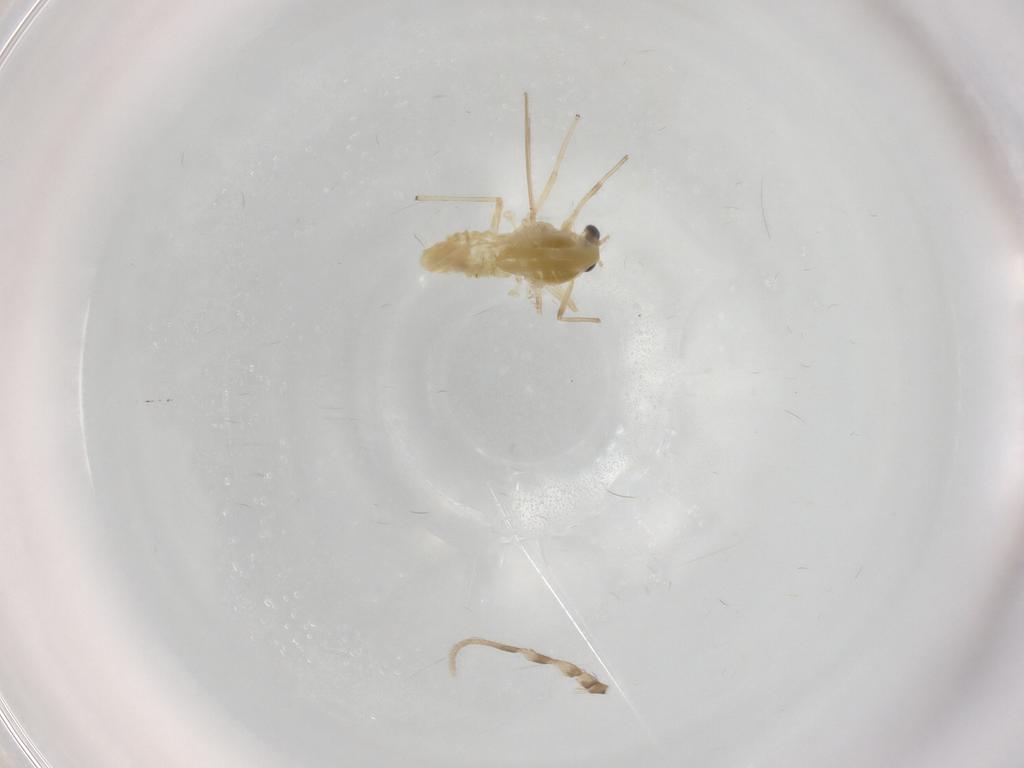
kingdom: Animalia
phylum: Arthropoda
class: Insecta
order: Diptera
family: Chironomidae
